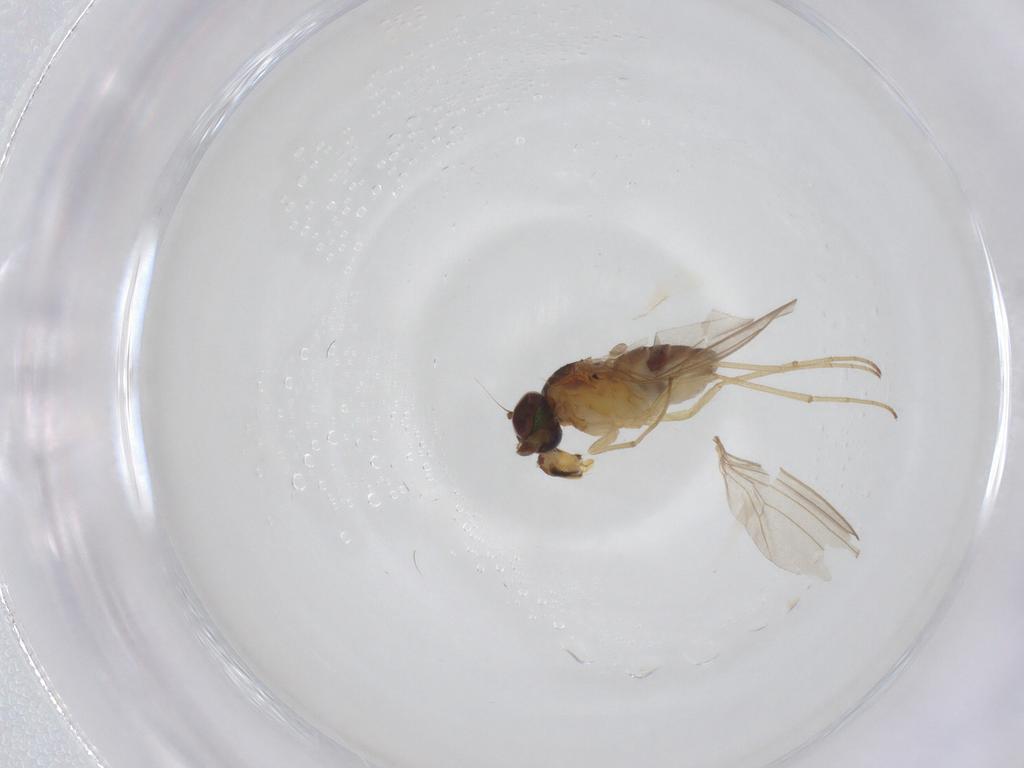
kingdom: Animalia
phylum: Arthropoda
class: Insecta
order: Diptera
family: Dolichopodidae
